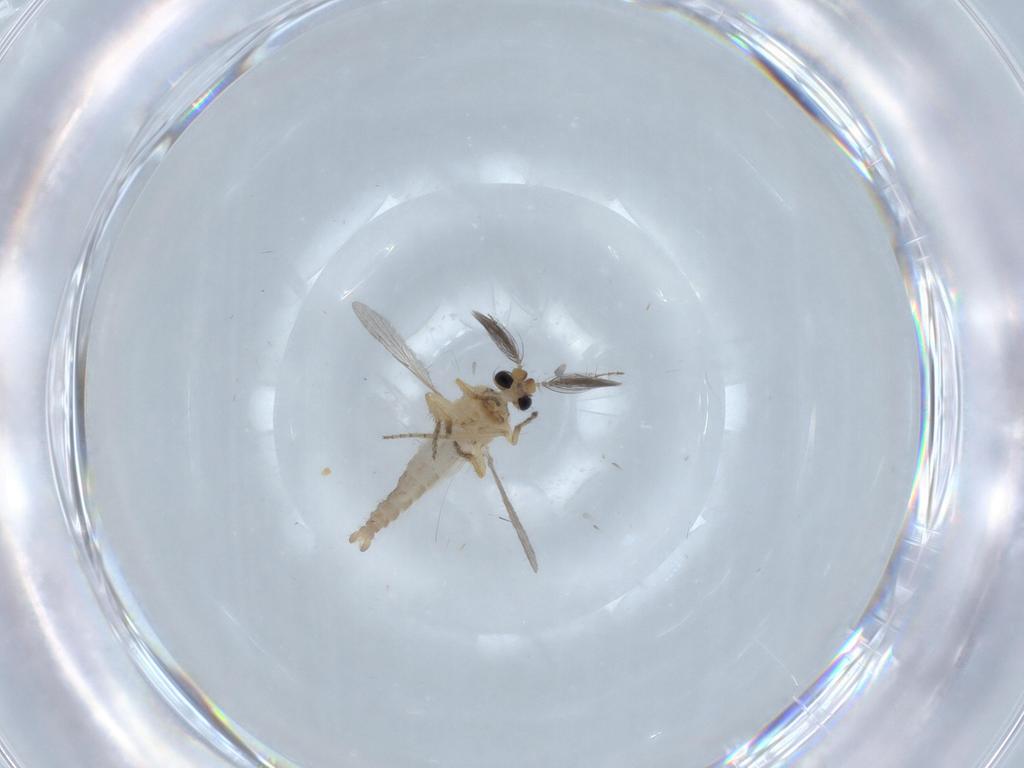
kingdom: Animalia
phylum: Arthropoda
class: Insecta
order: Diptera
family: Ceratopogonidae
